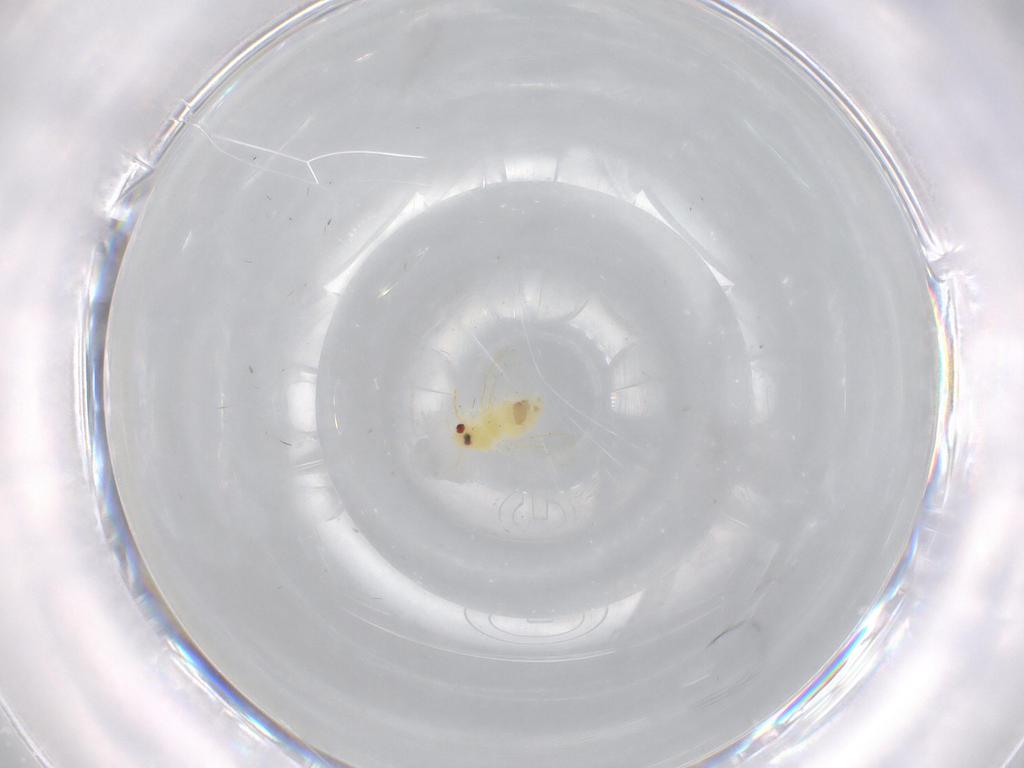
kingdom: Animalia
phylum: Arthropoda
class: Insecta
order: Hemiptera
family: Aleyrodidae
